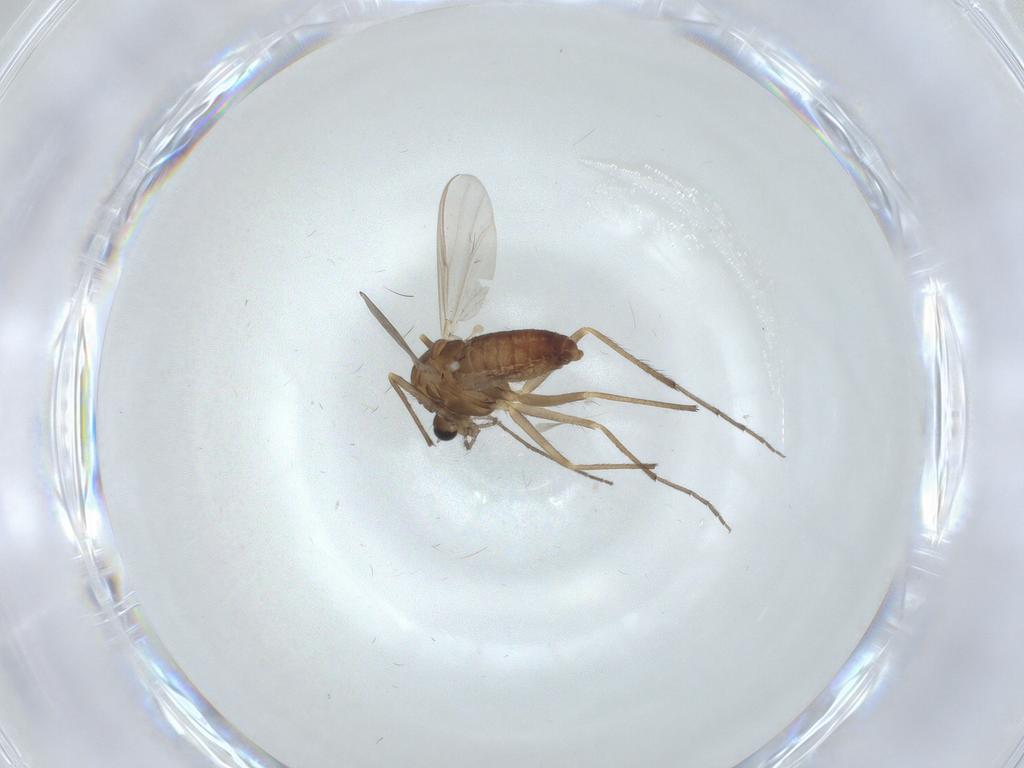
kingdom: Animalia
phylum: Arthropoda
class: Insecta
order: Diptera
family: Chironomidae
